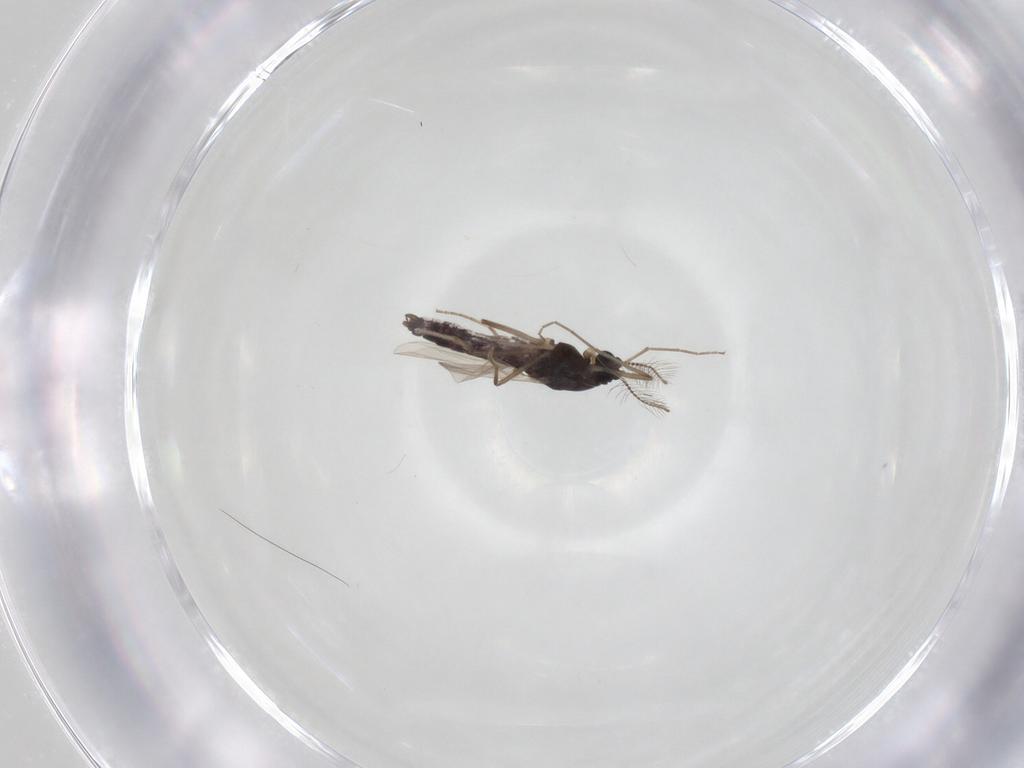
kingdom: Animalia
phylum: Arthropoda
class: Insecta
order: Diptera
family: Chironomidae
